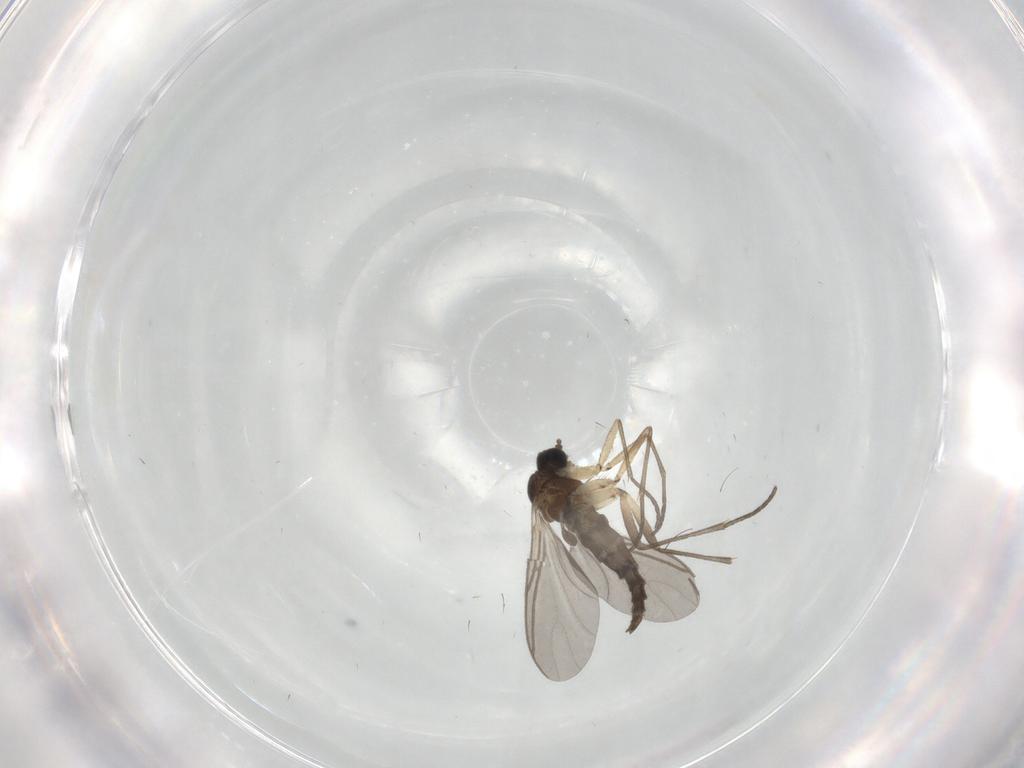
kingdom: Animalia
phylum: Arthropoda
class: Insecta
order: Diptera
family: Sciaridae
